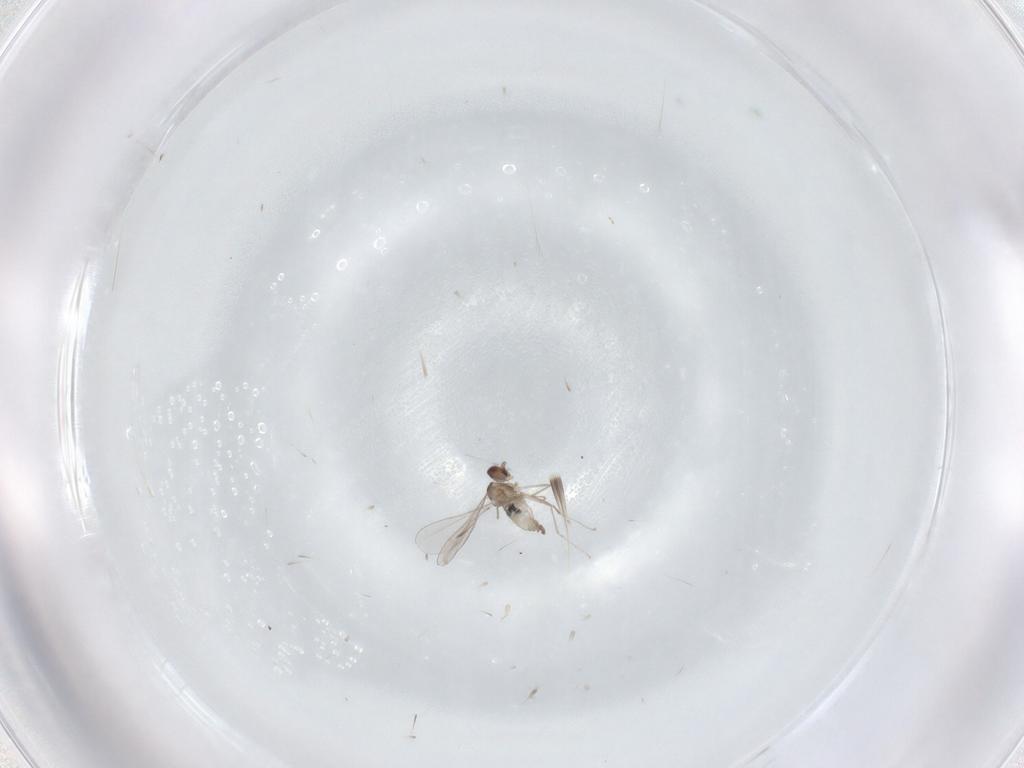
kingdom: Animalia
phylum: Arthropoda
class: Insecta
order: Diptera
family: Cecidomyiidae
